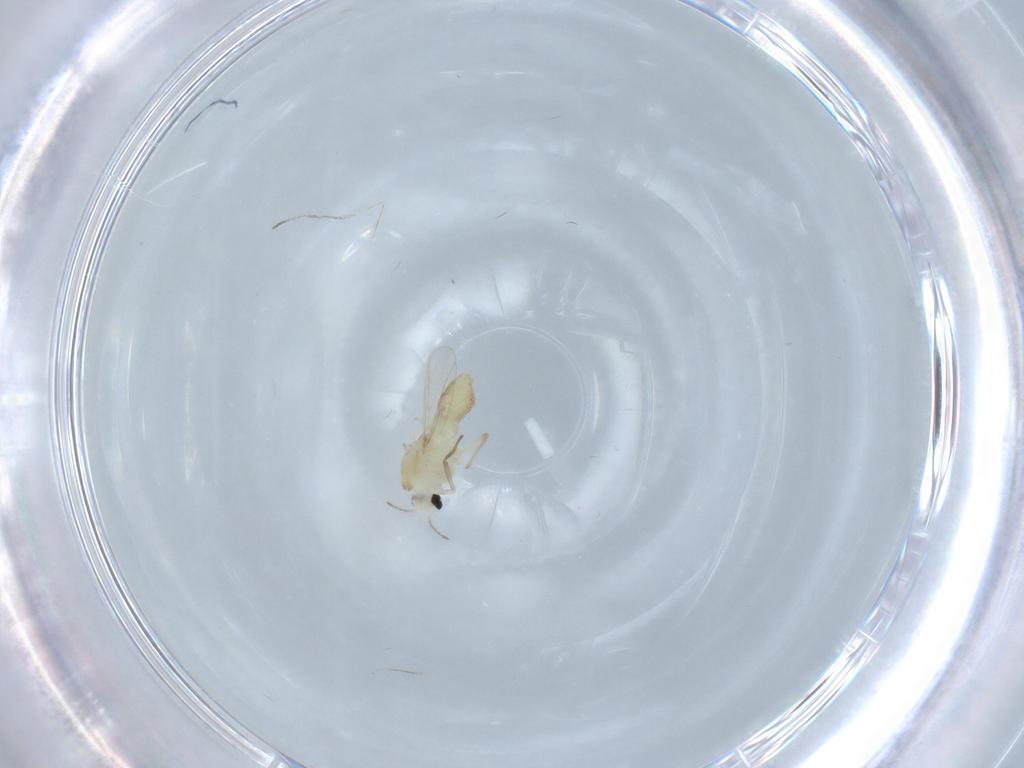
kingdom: Animalia
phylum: Arthropoda
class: Insecta
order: Diptera
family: Chironomidae
